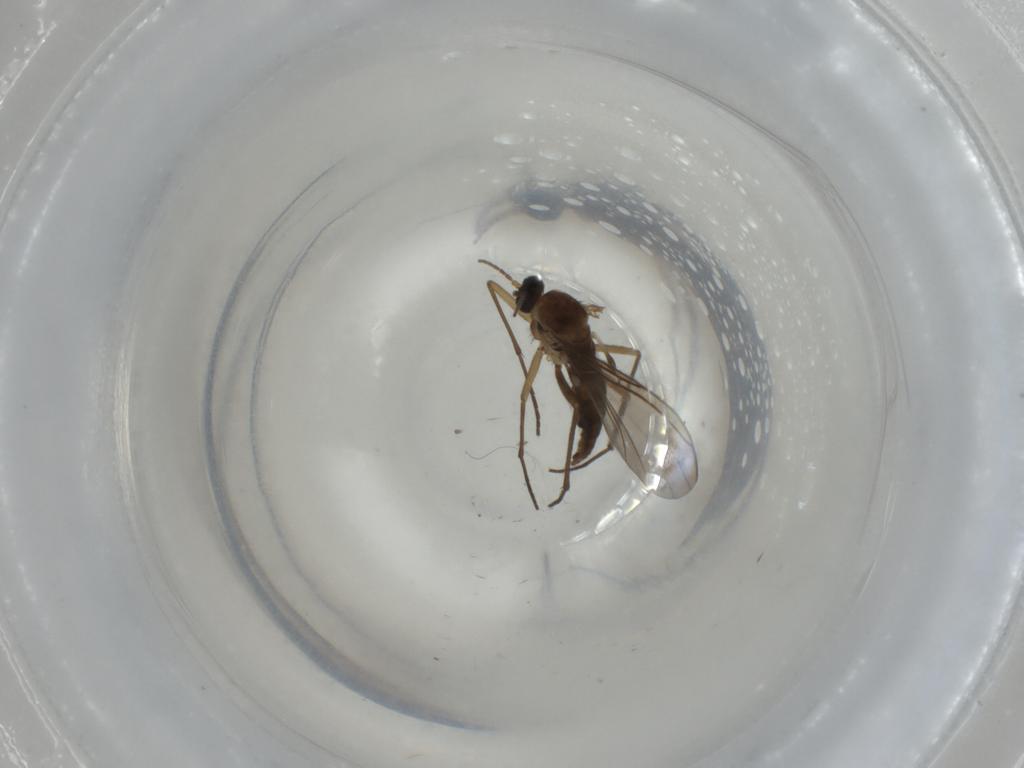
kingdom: Animalia
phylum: Arthropoda
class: Insecta
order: Diptera
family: Sciaridae
